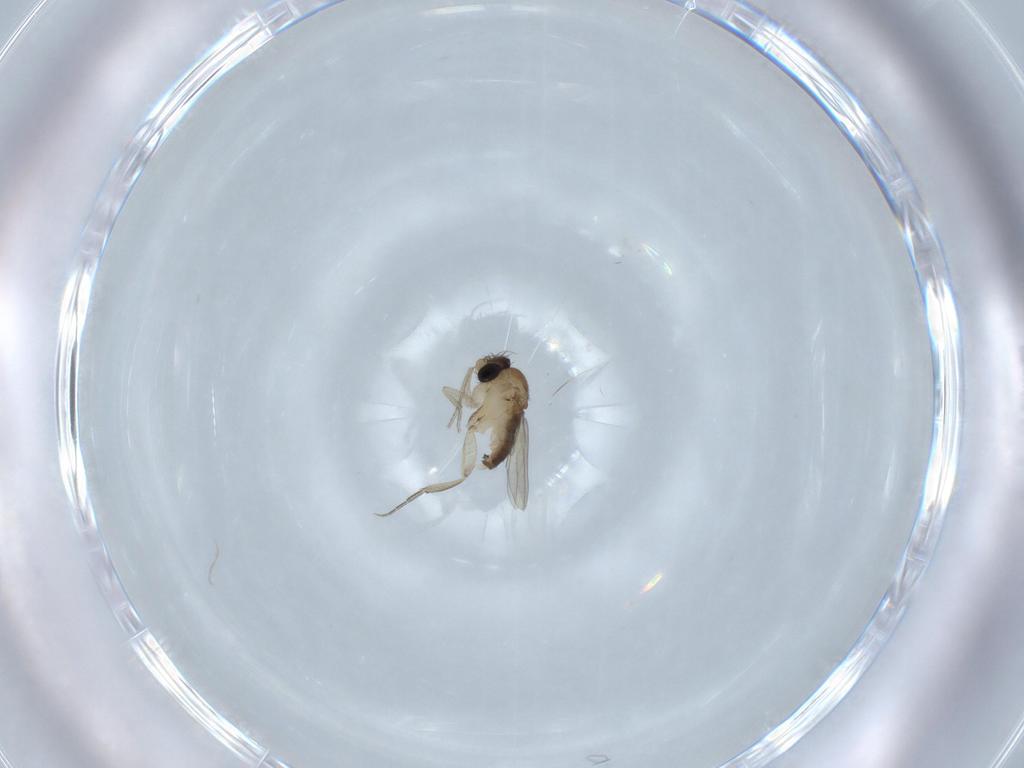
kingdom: Animalia
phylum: Arthropoda
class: Insecta
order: Diptera
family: Phoridae
